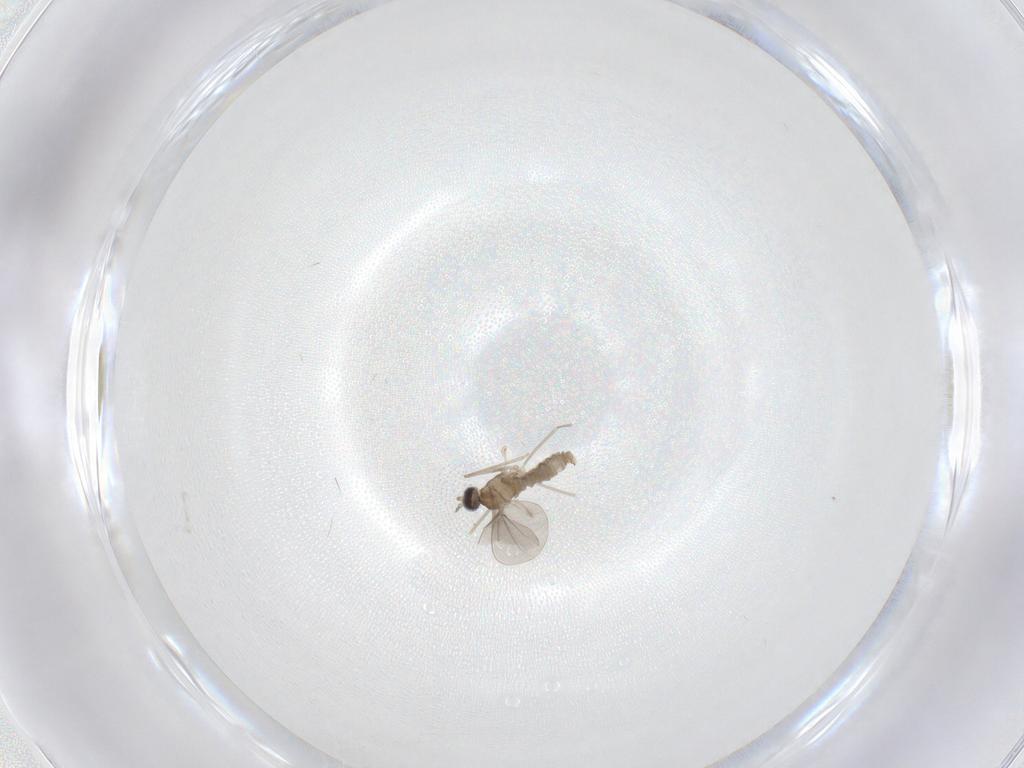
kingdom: Animalia
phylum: Arthropoda
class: Insecta
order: Diptera
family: Cecidomyiidae
